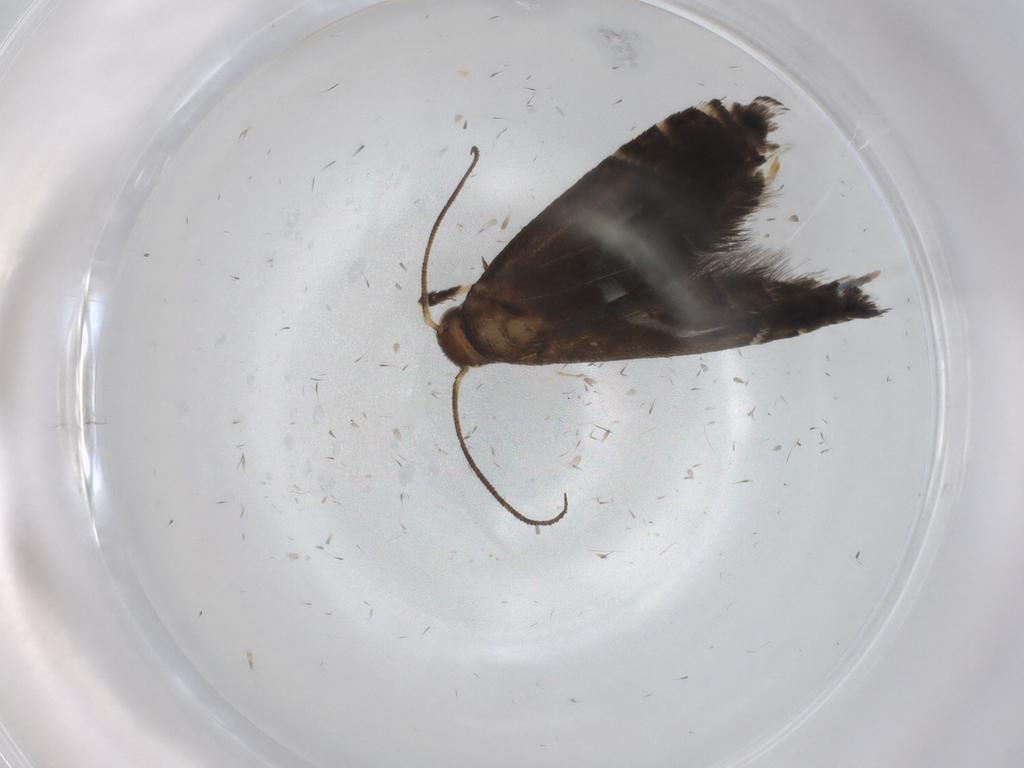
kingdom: Animalia
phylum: Arthropoda
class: Insecta
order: Lepidoptera
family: Glyphipterigidae
